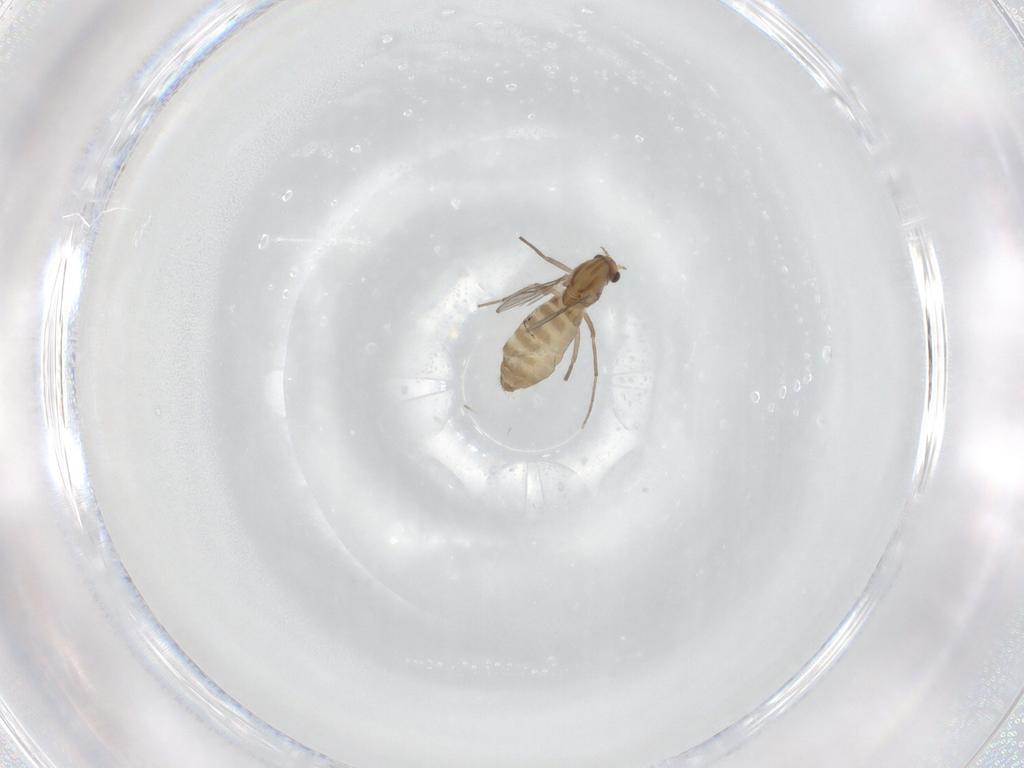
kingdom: Animalia
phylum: Arthropoda
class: Insecta
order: Diptera
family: Chironomidae
